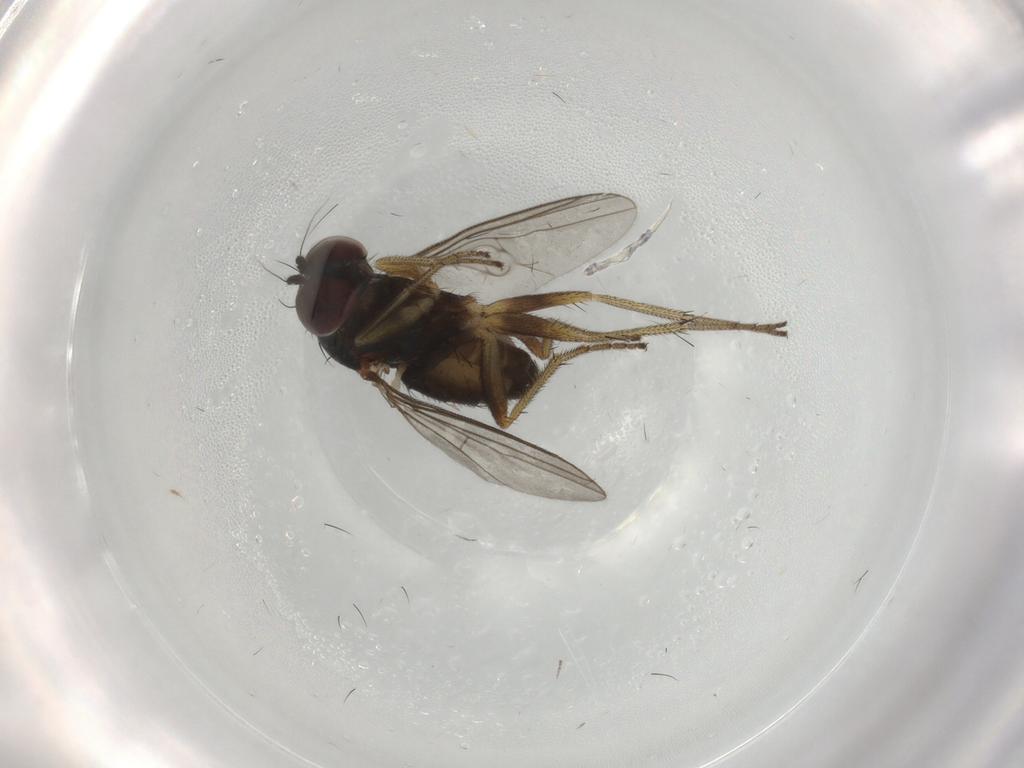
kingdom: Animalia
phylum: Arthropoda
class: Insecta
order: Diptera
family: Dolichopodidae
